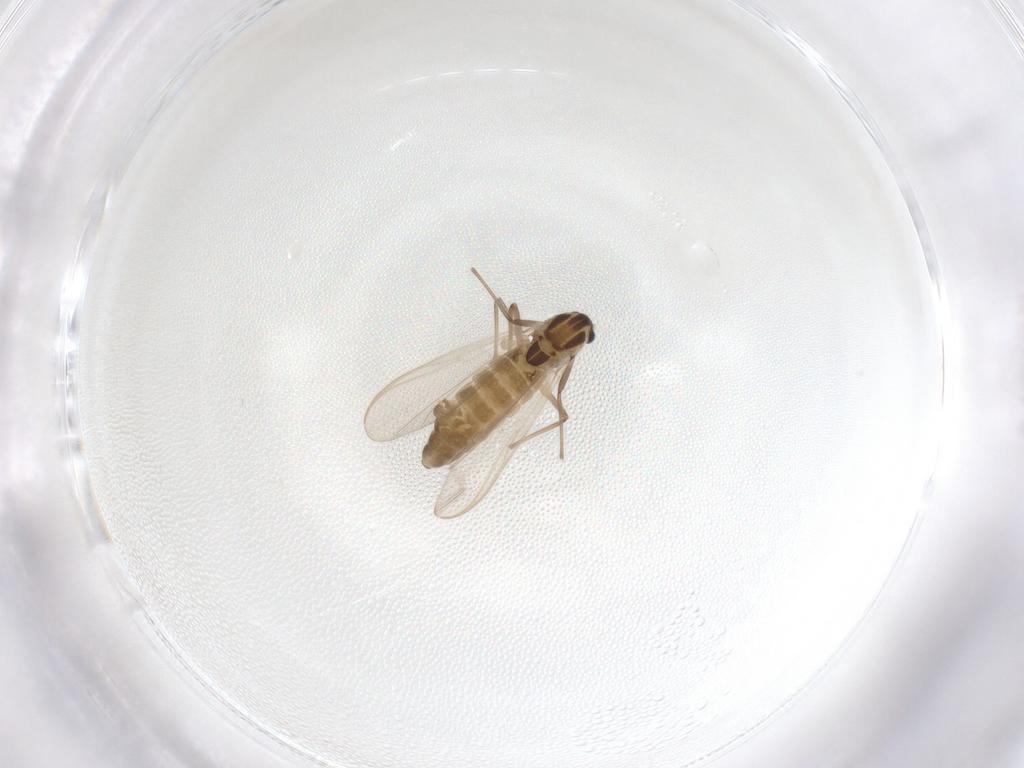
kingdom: Animalia
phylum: Arthropoda
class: Insecta
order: Diptera
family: Chironomidae
